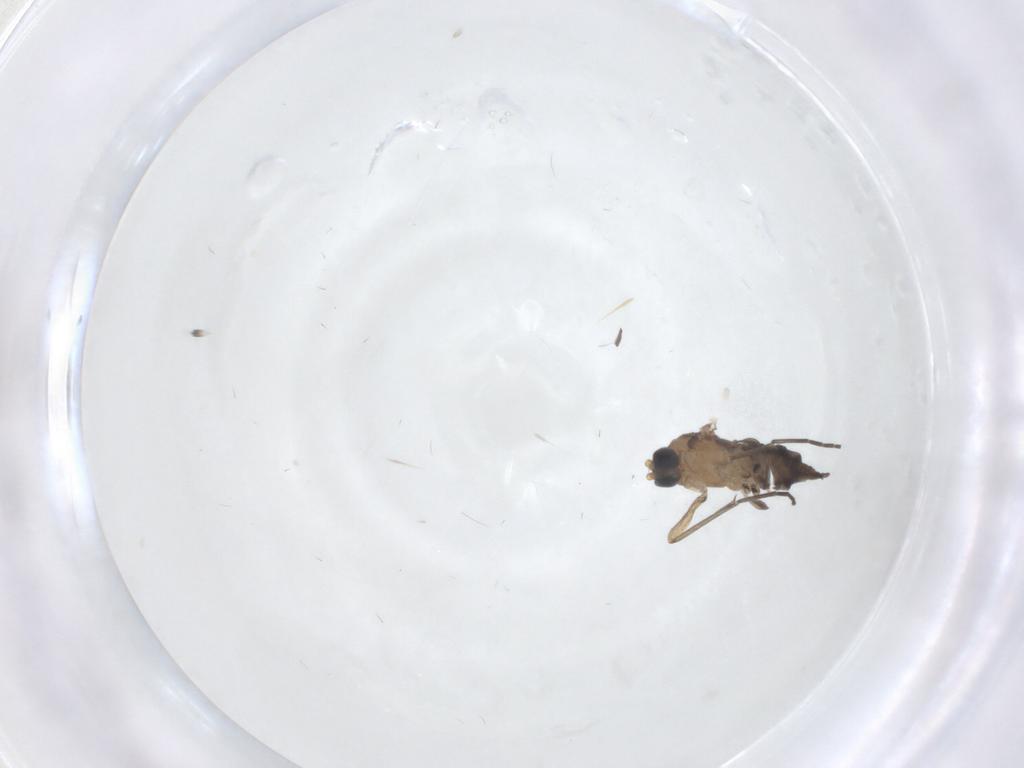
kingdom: Animalia
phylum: Arthropoda
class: Insecta
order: Diptera
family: Sciaridae
